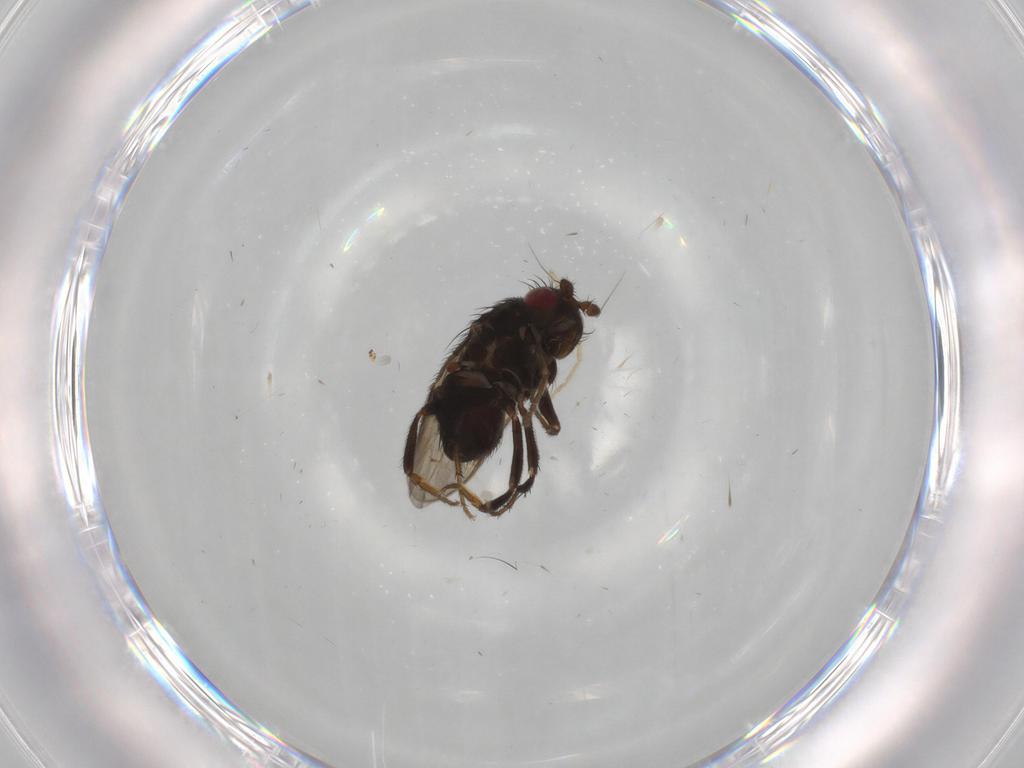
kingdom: Animalia
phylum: Arthropoda
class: Insecta
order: Diptera
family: Sphaeroceridae
